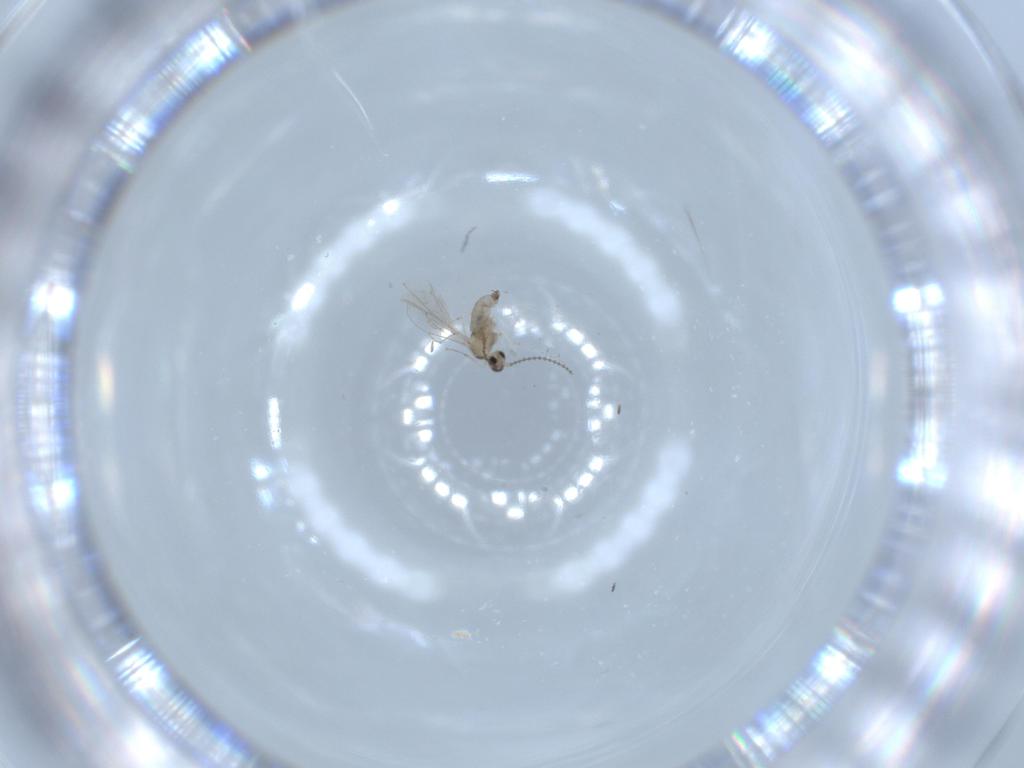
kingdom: Animalia
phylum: Arthropoda
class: Insecta
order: Diptera
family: Cecidomyiidae
